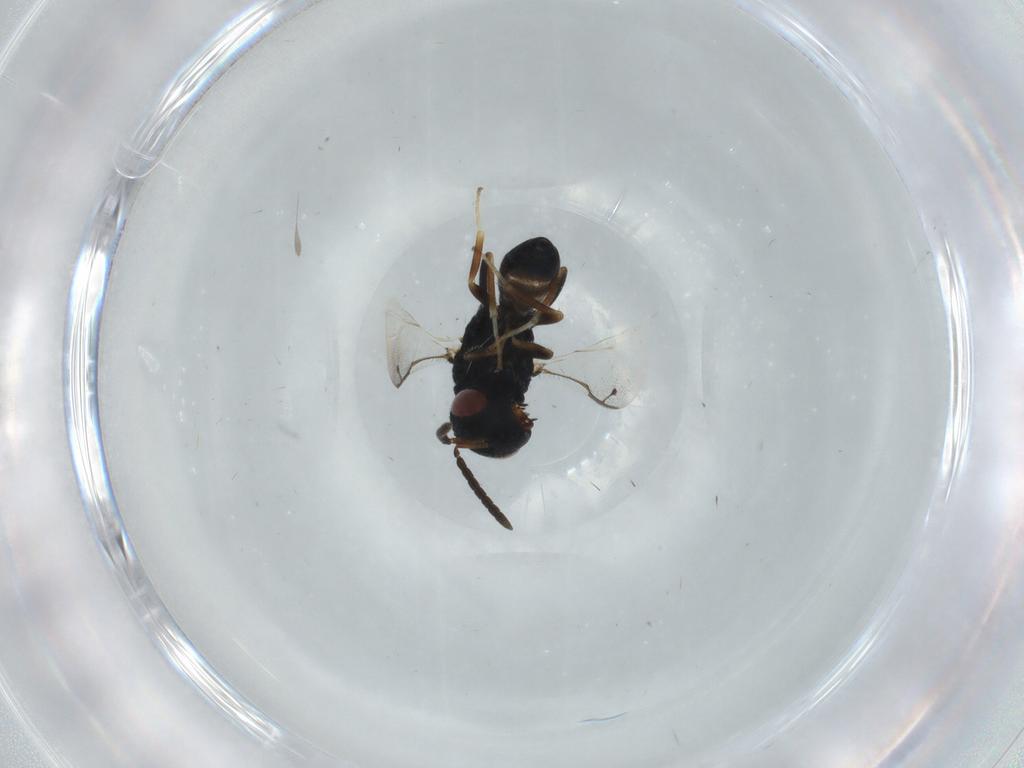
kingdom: Animalia
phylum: Arthropoda
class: Insecta
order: Hymenoptera
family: Pteromalidae
